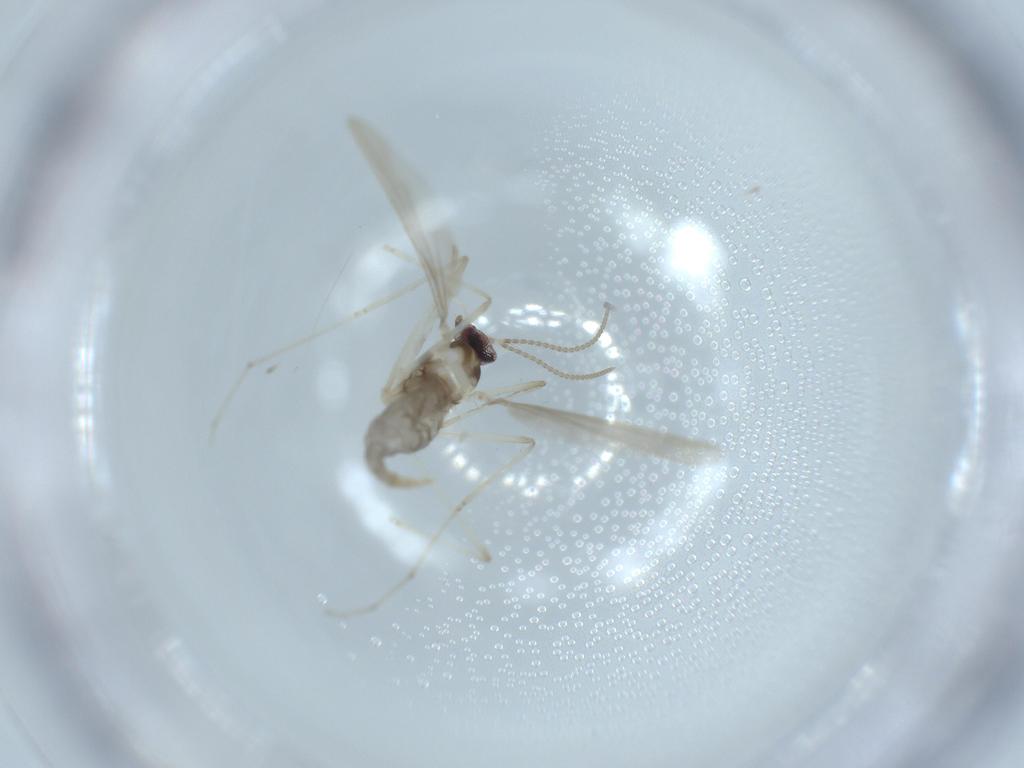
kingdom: Animalia
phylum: Arthropoda
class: Insecta
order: Diptera
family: Cecidomyiidae
